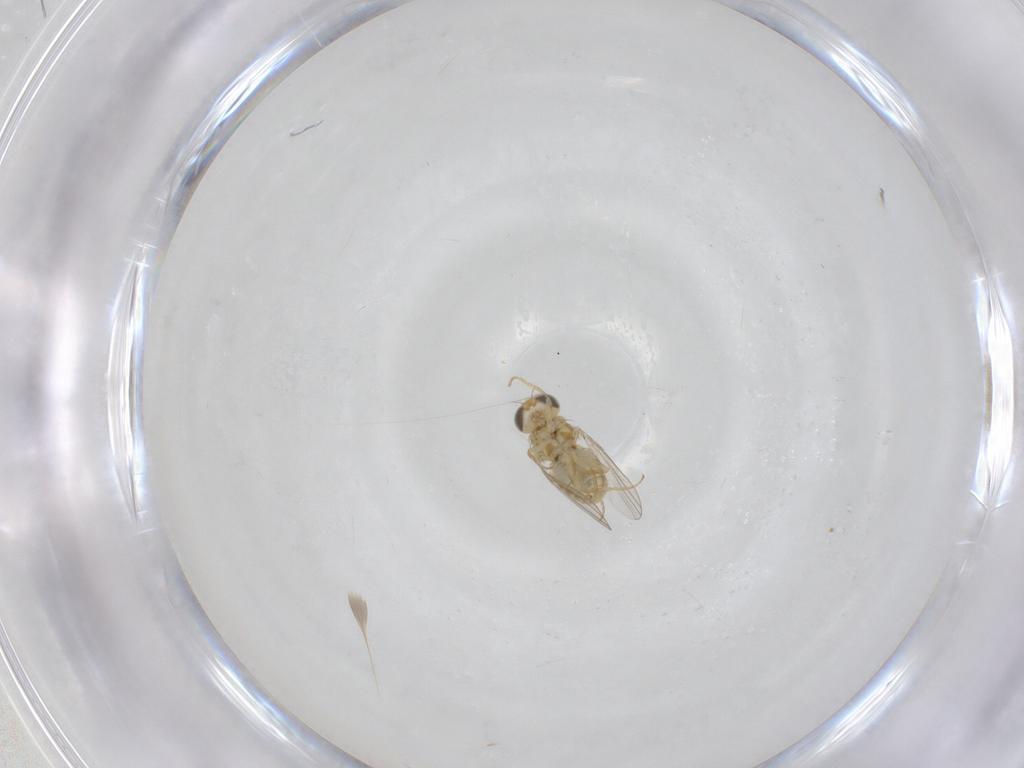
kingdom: Animalia
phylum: Arthropoda
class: Insecta
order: Diptera
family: Chyromyidae
